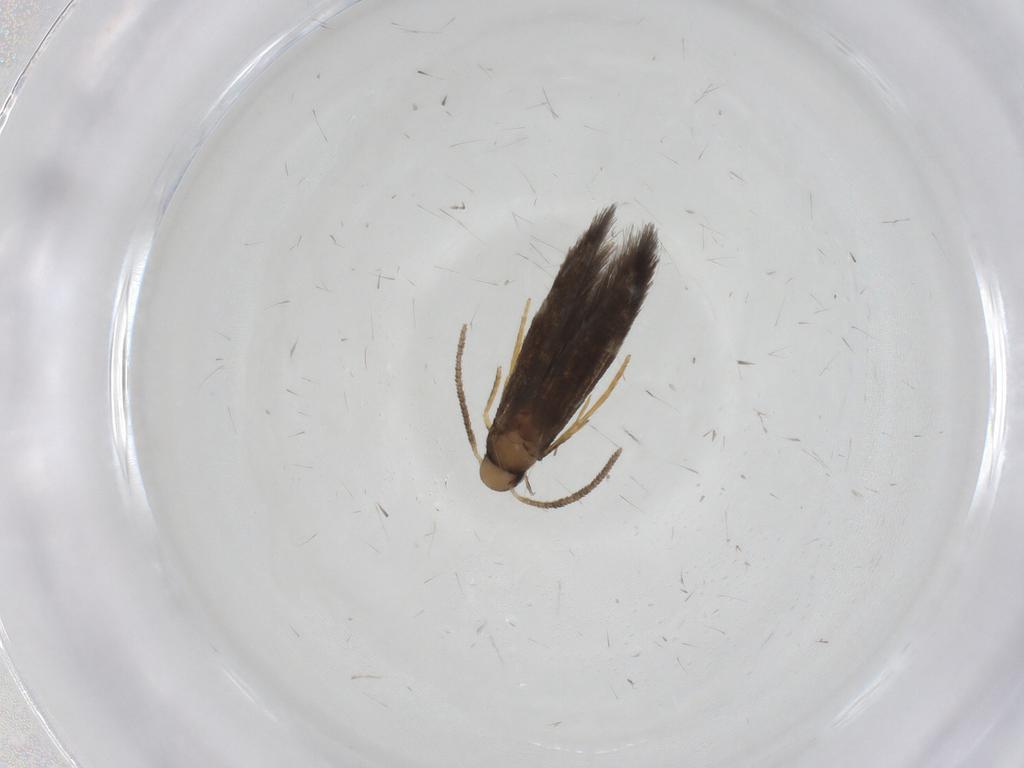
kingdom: Animalia
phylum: Arthropoda
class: Insecta
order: Lepidoptera
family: Heliozelidae
